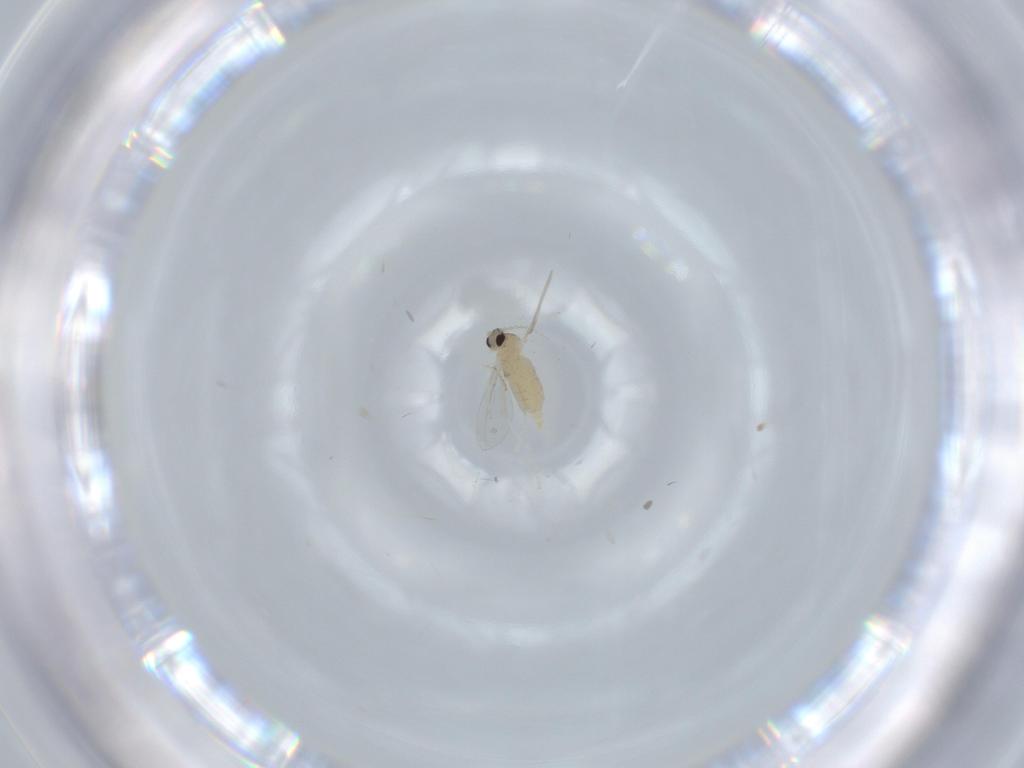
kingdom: Animalia
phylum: Arthropoda
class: Insecta
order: Diptera
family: Cecidomyiidae
